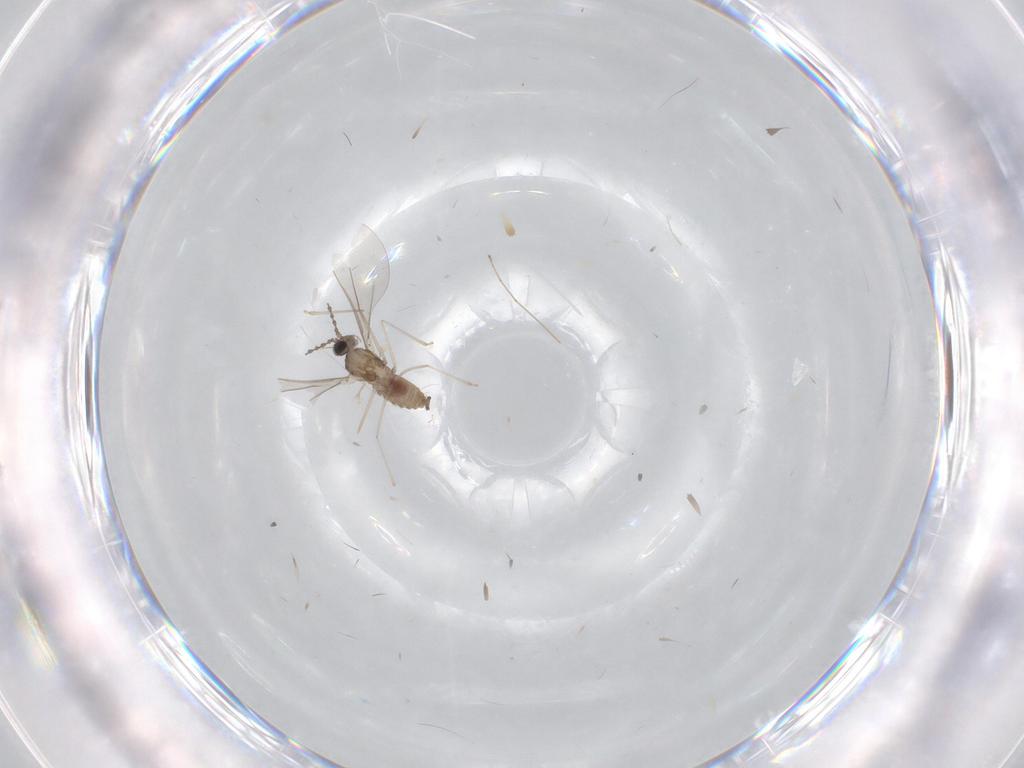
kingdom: Animalia
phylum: Arthropoda
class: Insecta
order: Diptera
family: Cecidomyiidae
